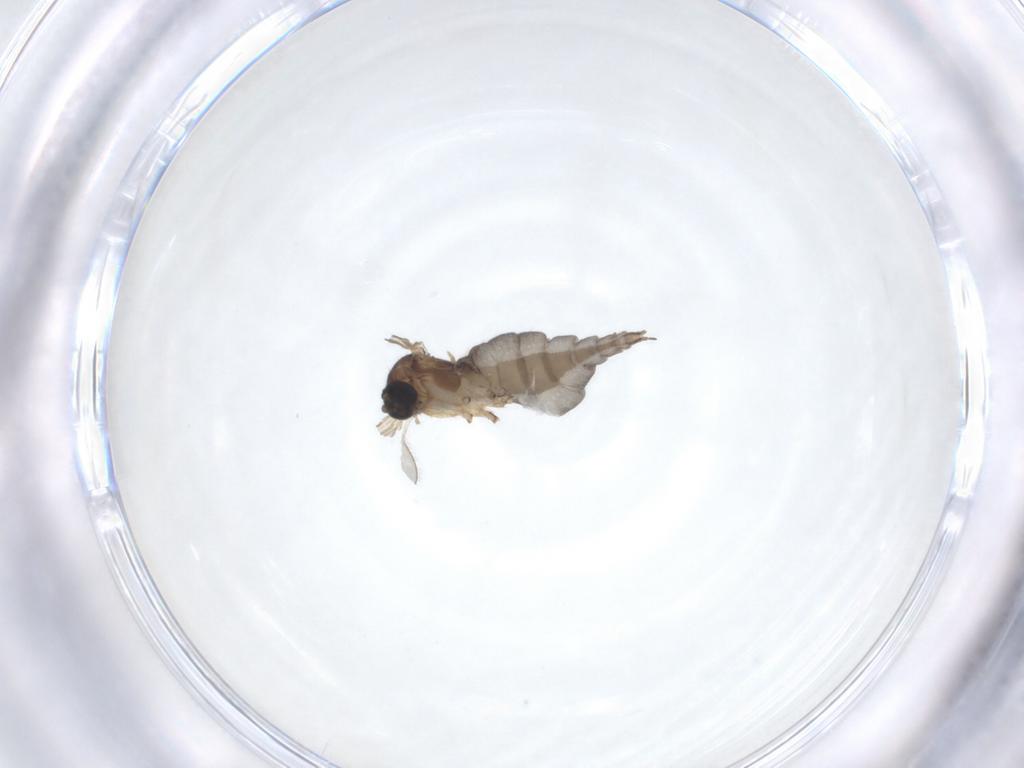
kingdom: Animalia
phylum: Arthropoda
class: Insecta
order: Diptera
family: Sciaridae
